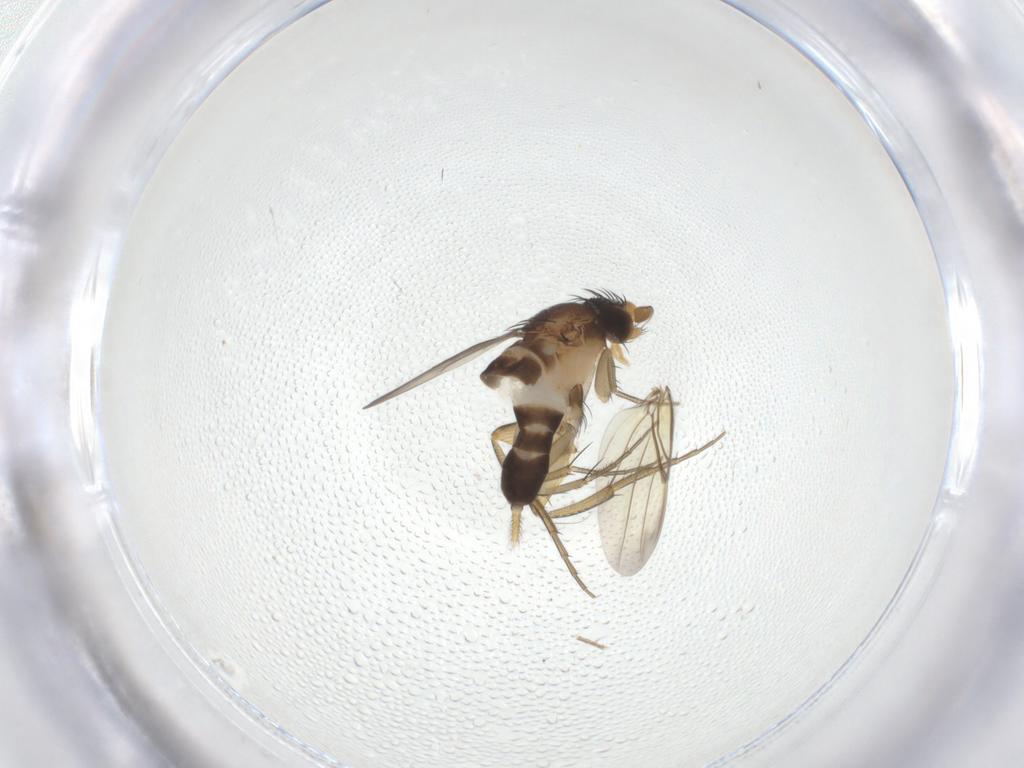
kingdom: Animalia
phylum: Arthropoda
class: Insecta
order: Diptera
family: Phoridae
